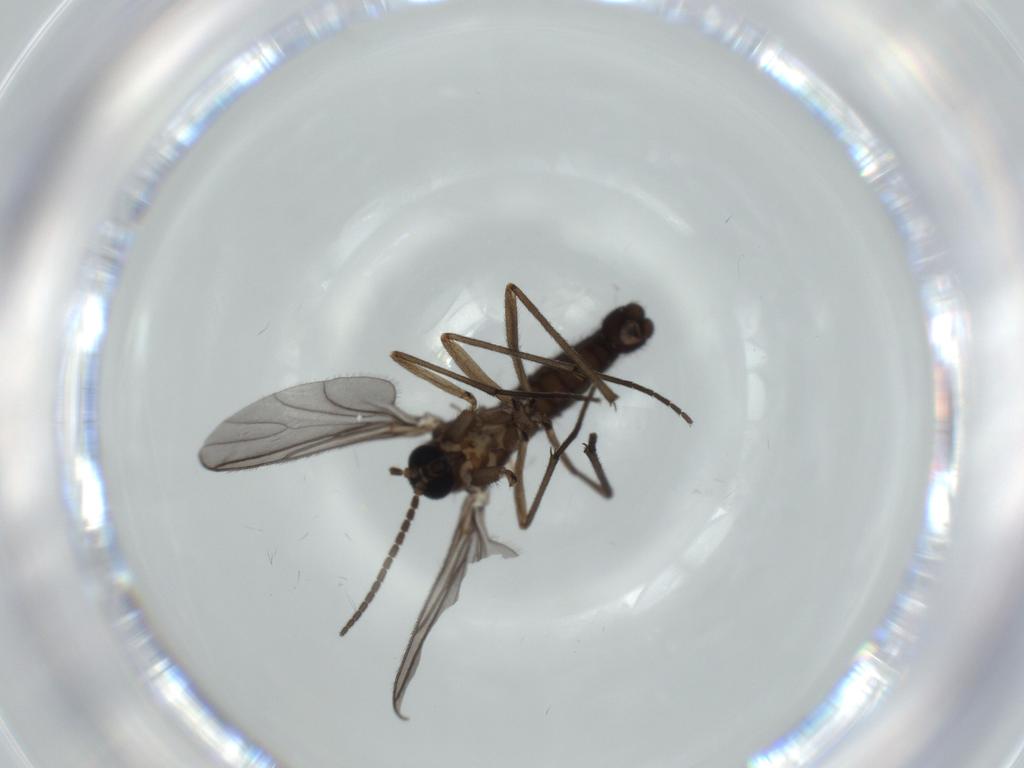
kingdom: Animalia
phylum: Arthropoda
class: Insecta
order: Diptera
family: Sciaridae
